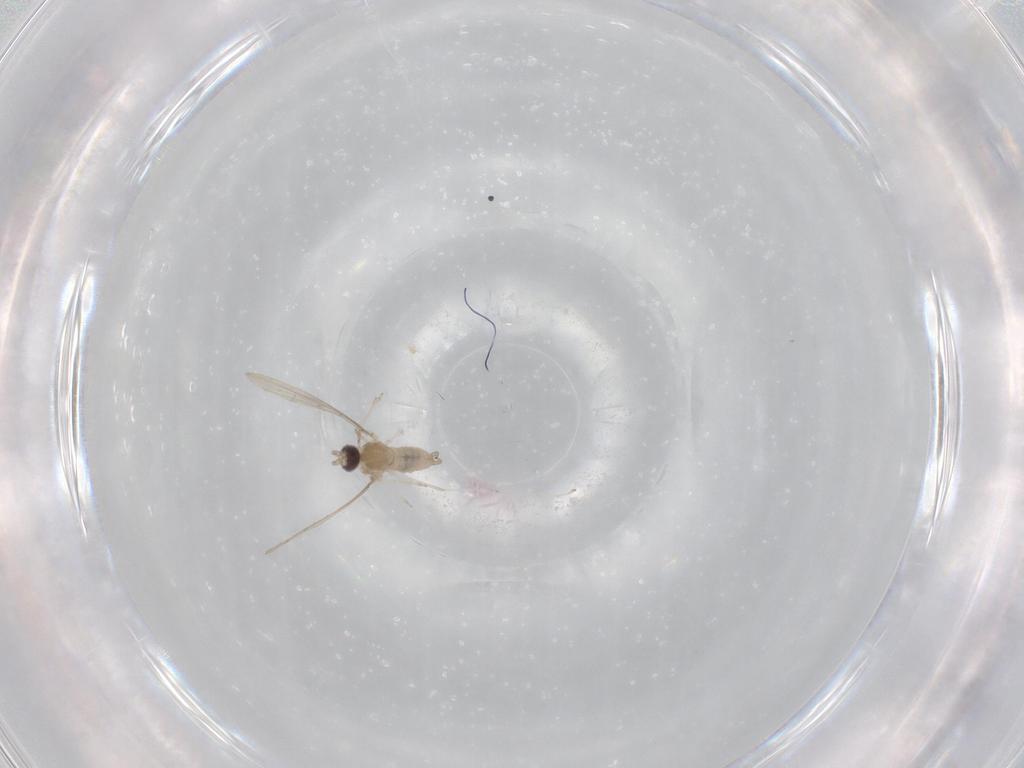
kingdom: Animalia
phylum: Arthropoda
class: Insecta
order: Diptera
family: Cecidomyiidae
